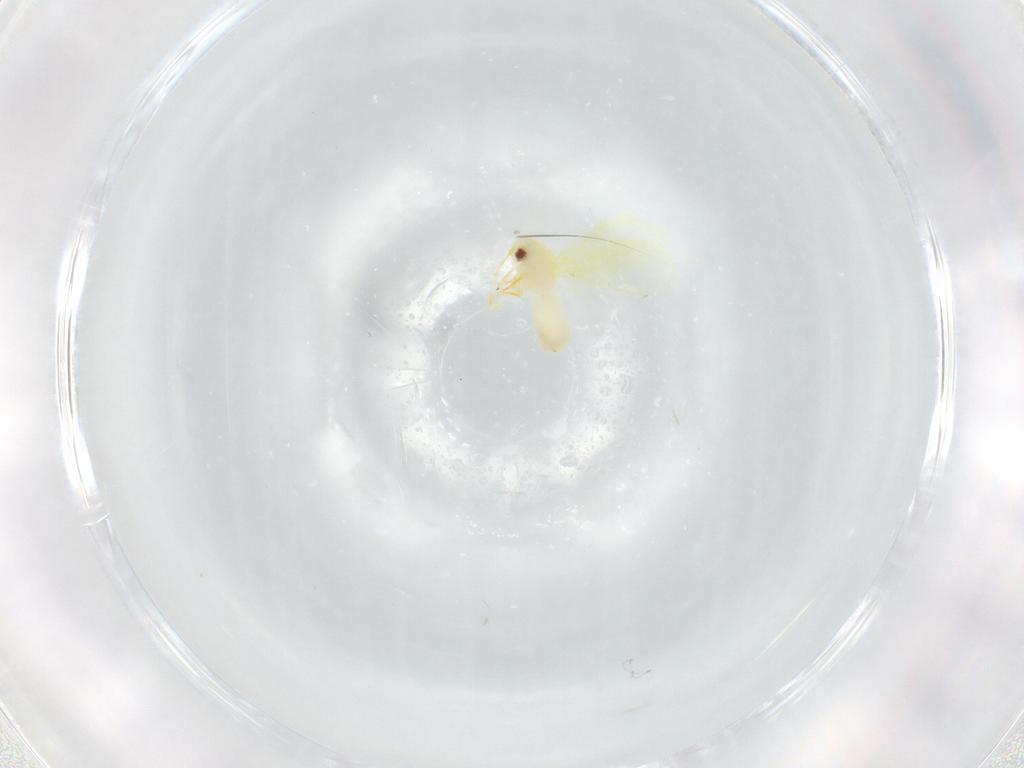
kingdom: Animalia
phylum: Arthropoda
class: Insecta
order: Hemiptera
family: Aleyrodidae
